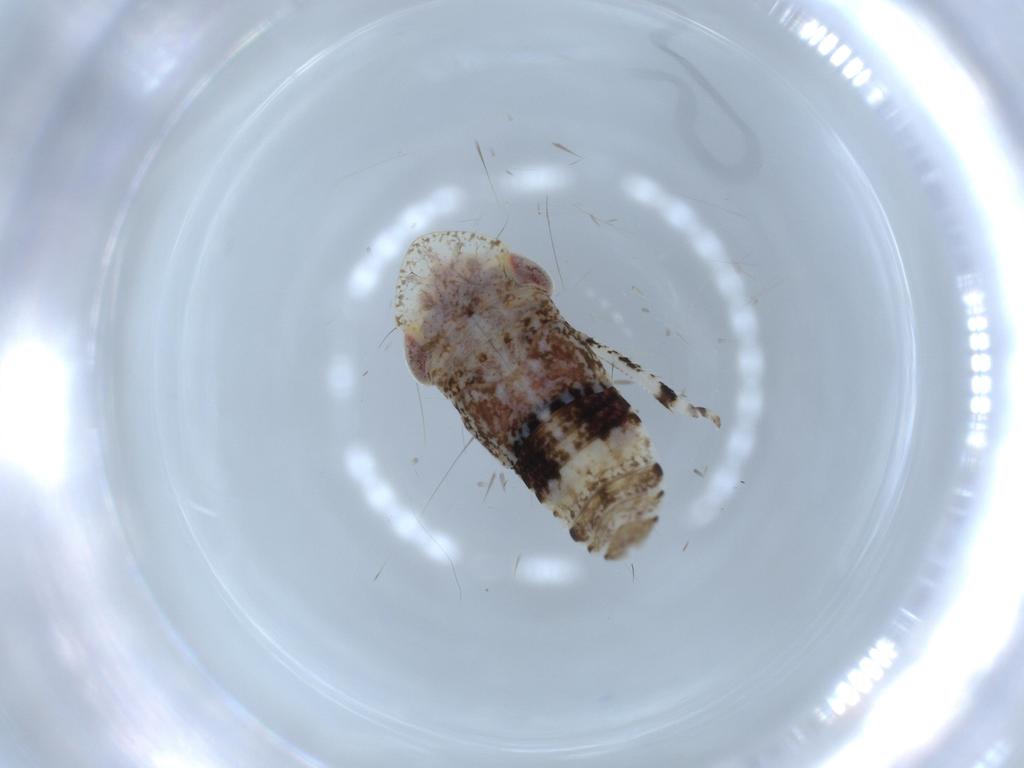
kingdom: Animalia
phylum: Arthropoda
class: Insecta
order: Hemiptera
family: Cicadellidae
